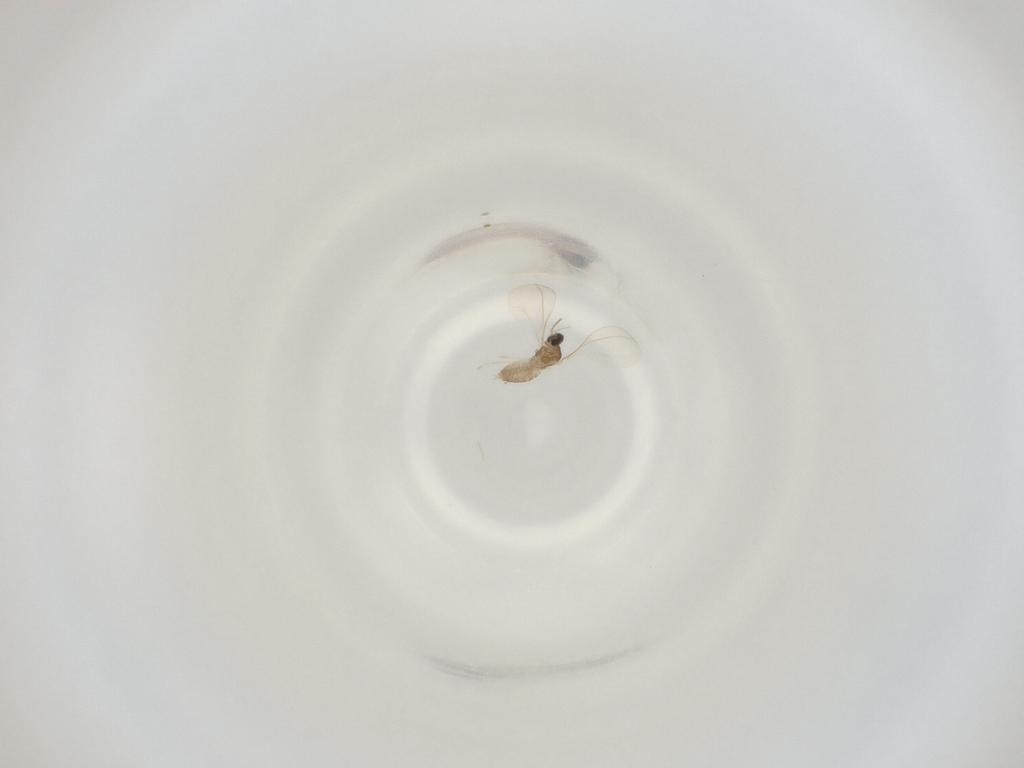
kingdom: Animalia
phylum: Arthropoda
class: Insecta
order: Diptera
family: Cecidomyiidae
